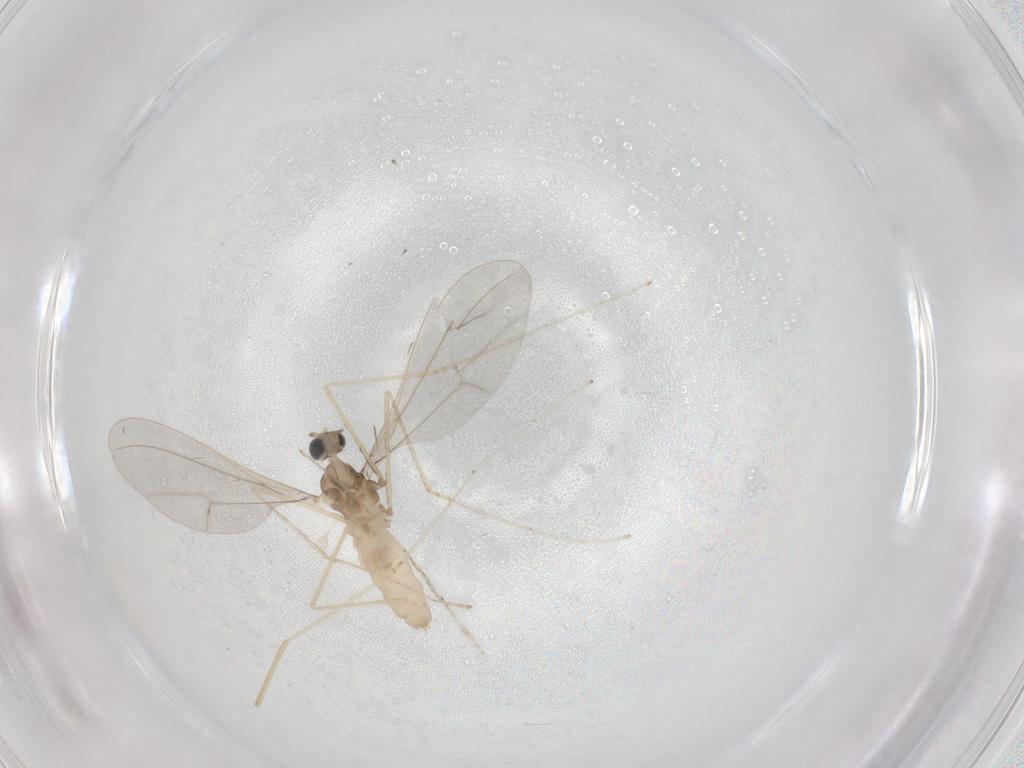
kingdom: Animalia
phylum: Arthropoda
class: Insecta
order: Diptera
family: Cecidomyiidae
